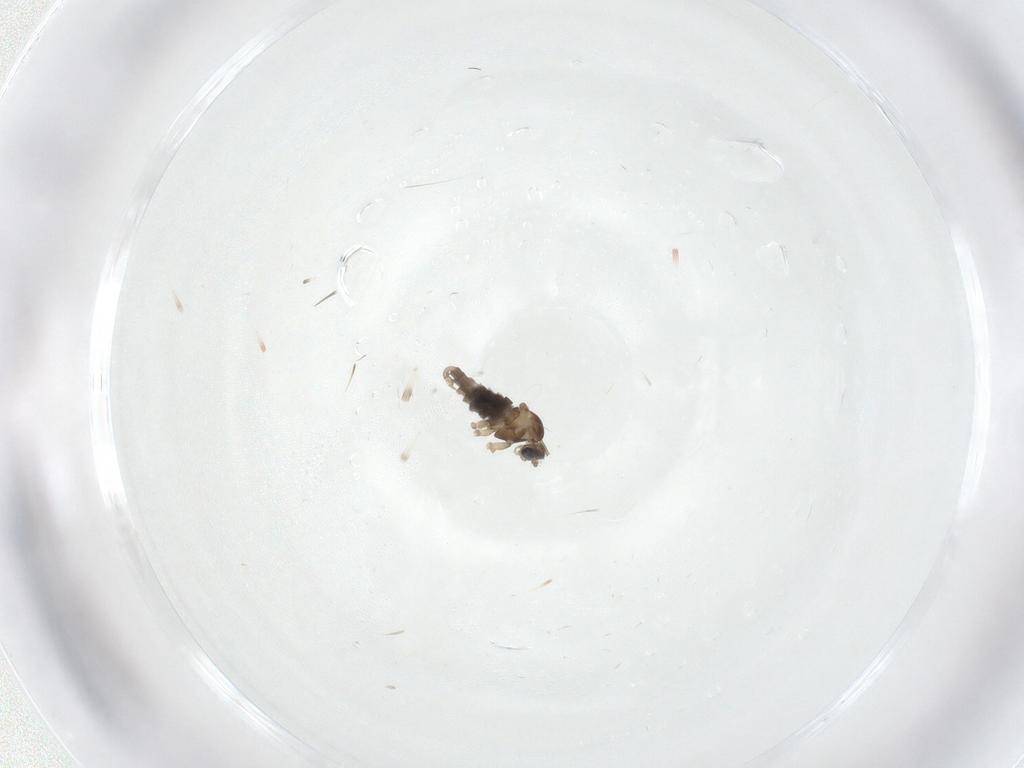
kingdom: Animalia
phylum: Arthropoda
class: Insecta
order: Diptera
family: Cecidomyiidae
